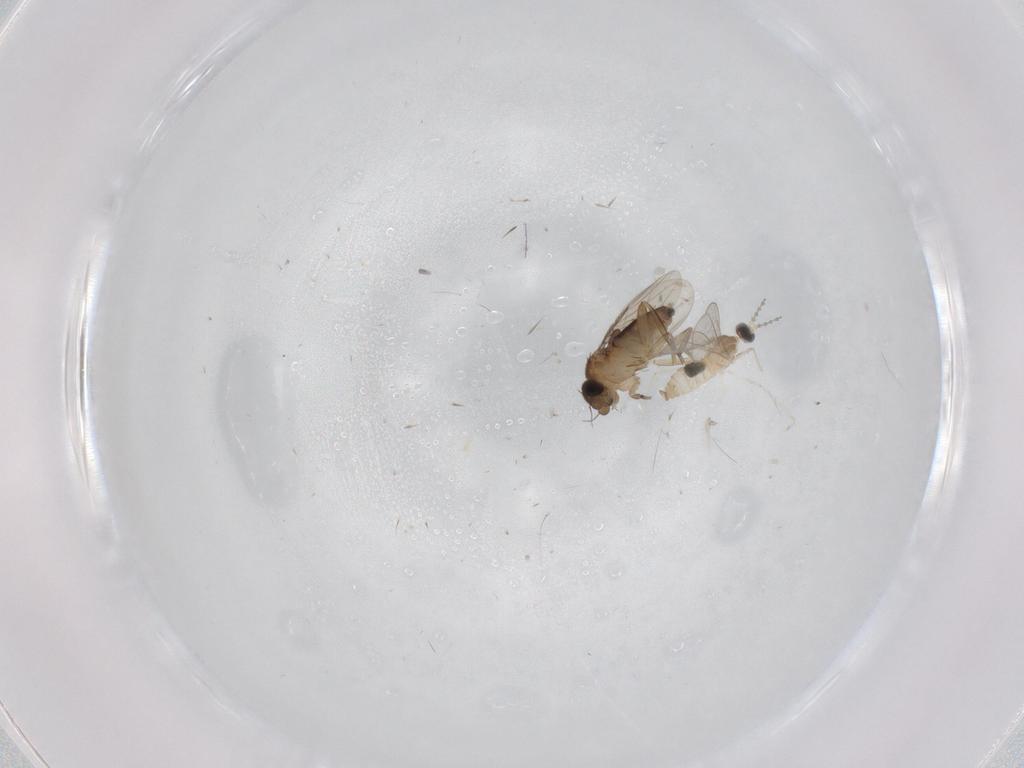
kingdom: Animalia
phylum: Arthropoda
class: Insecta
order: Diptera
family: Cecidomyiidae
